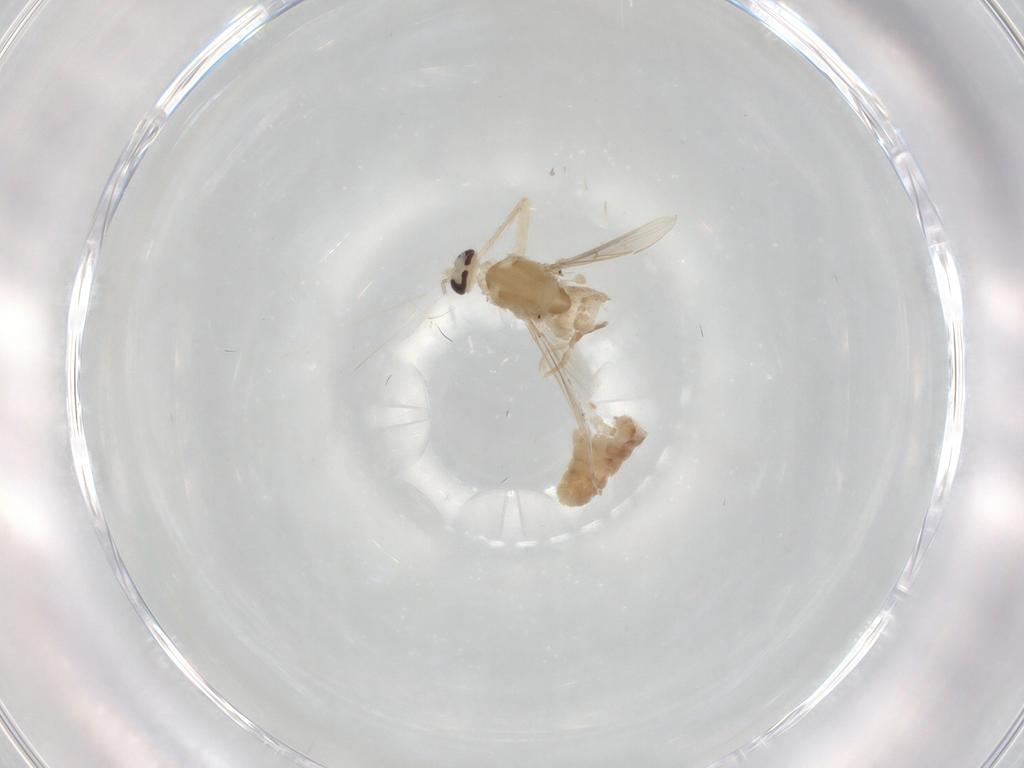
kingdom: Animalia
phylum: Arthropoda
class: Insecta
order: Diptera
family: Chironomidae
